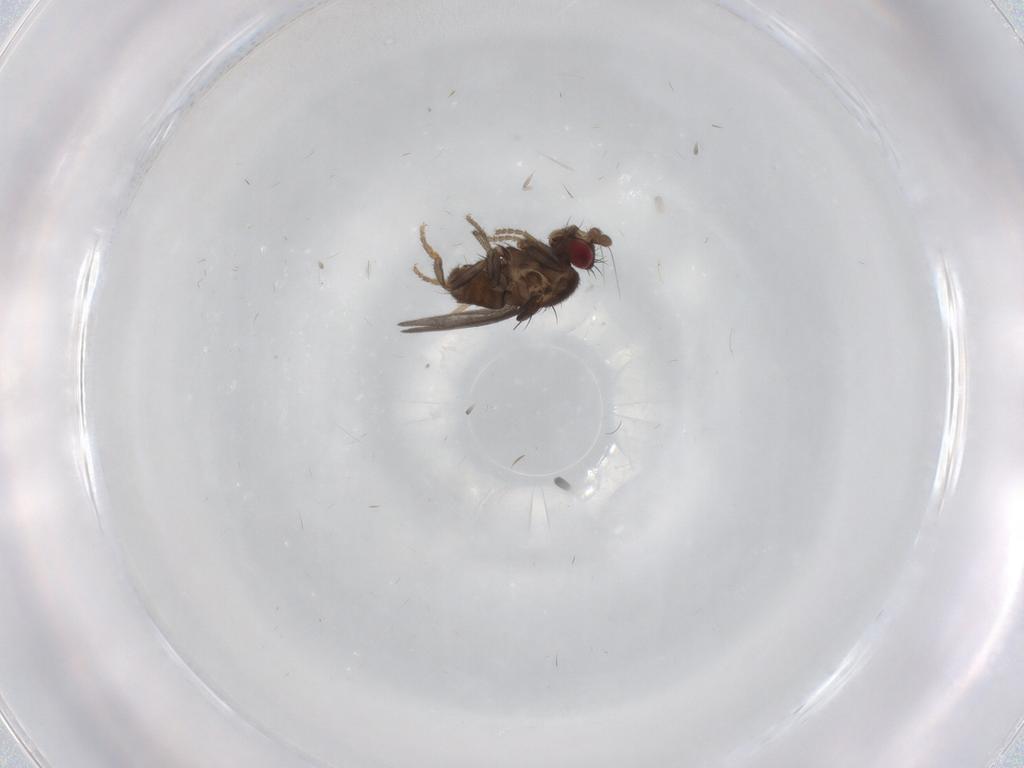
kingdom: Animalia
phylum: Arthropoda
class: Insecta
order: Diptera
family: Sphaeroceridae
